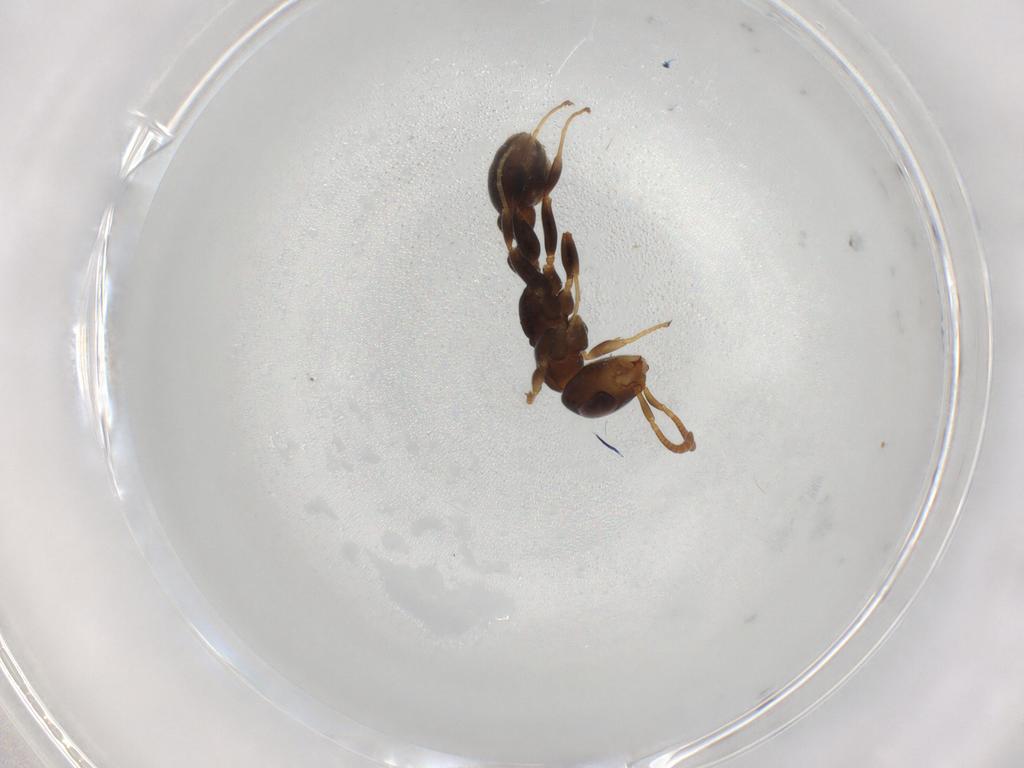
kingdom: Animalia
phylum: Arthropoda
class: Insecta
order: Hymenoptera
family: Formicidae
